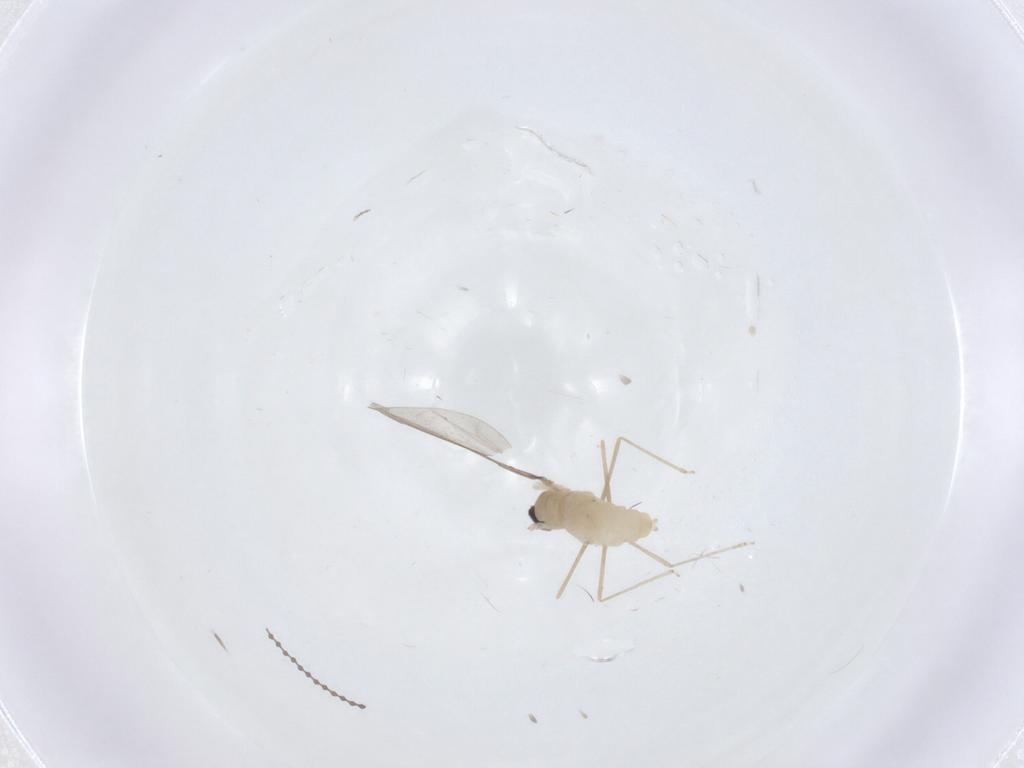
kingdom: Animalia
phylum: Arthropoda
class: Insecta
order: Diptera
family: Cecidomyiidae
